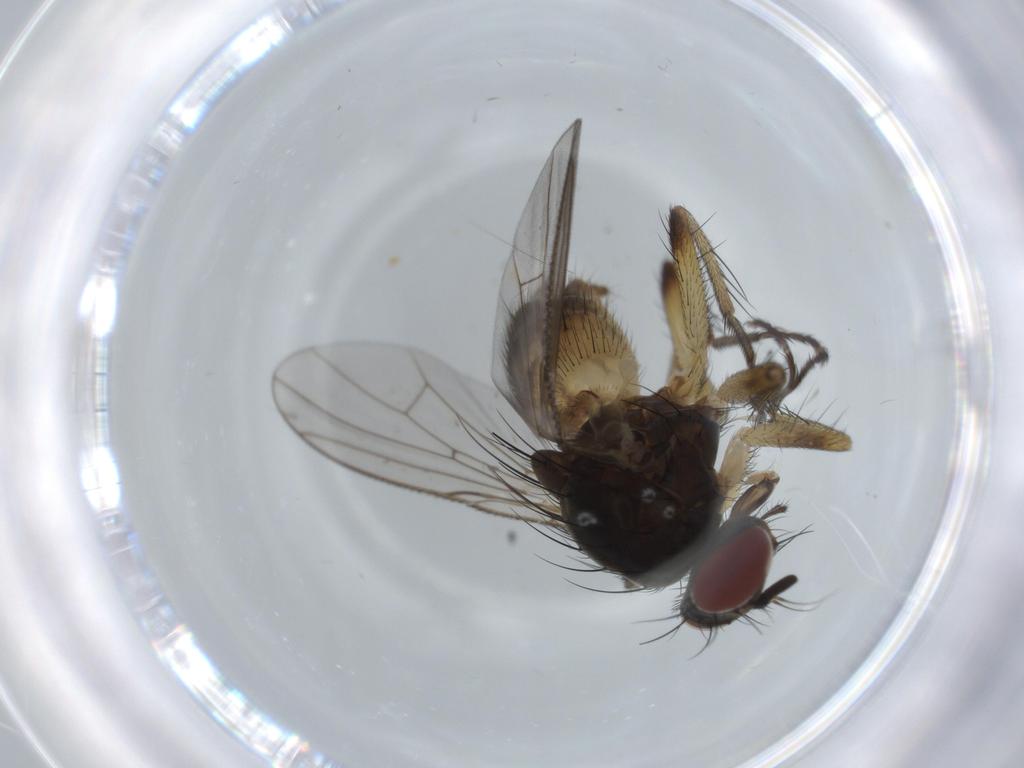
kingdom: Animalia
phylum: Arthropoda
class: Insecta
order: Diptera
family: Muscidae
